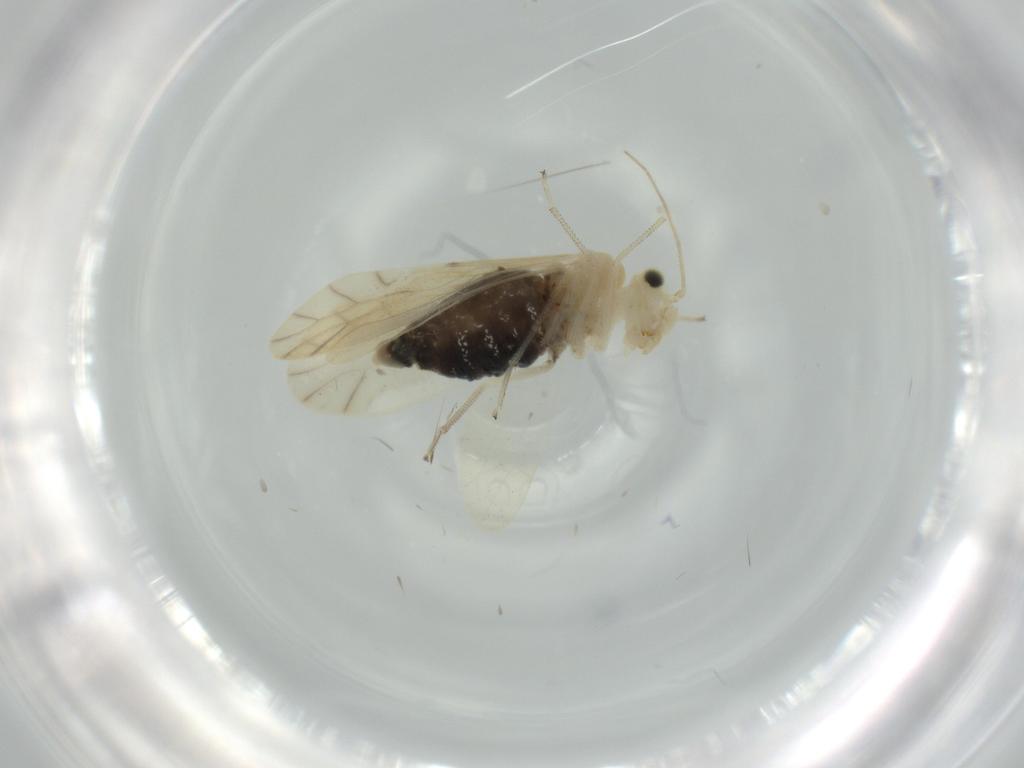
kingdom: Animalia
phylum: Arthropoda
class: Insecta
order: Psocodea
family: Caeciliusidae
